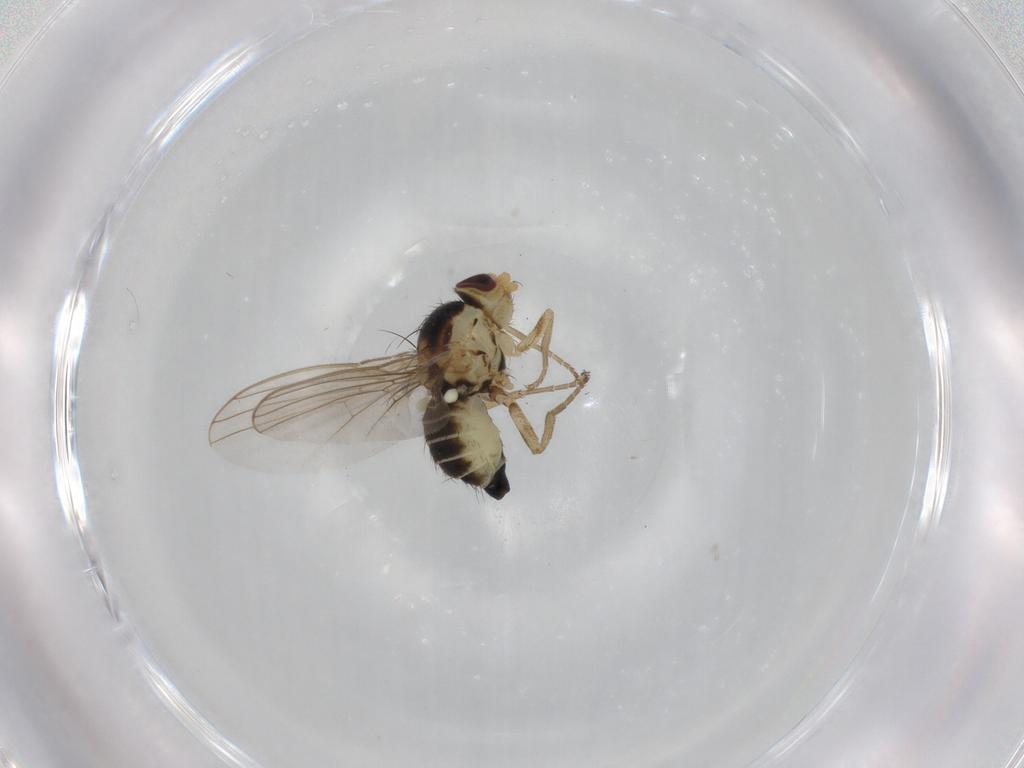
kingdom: Animalia
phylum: Arthropoda
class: Insecta
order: Diptera
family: Agromyzidae
